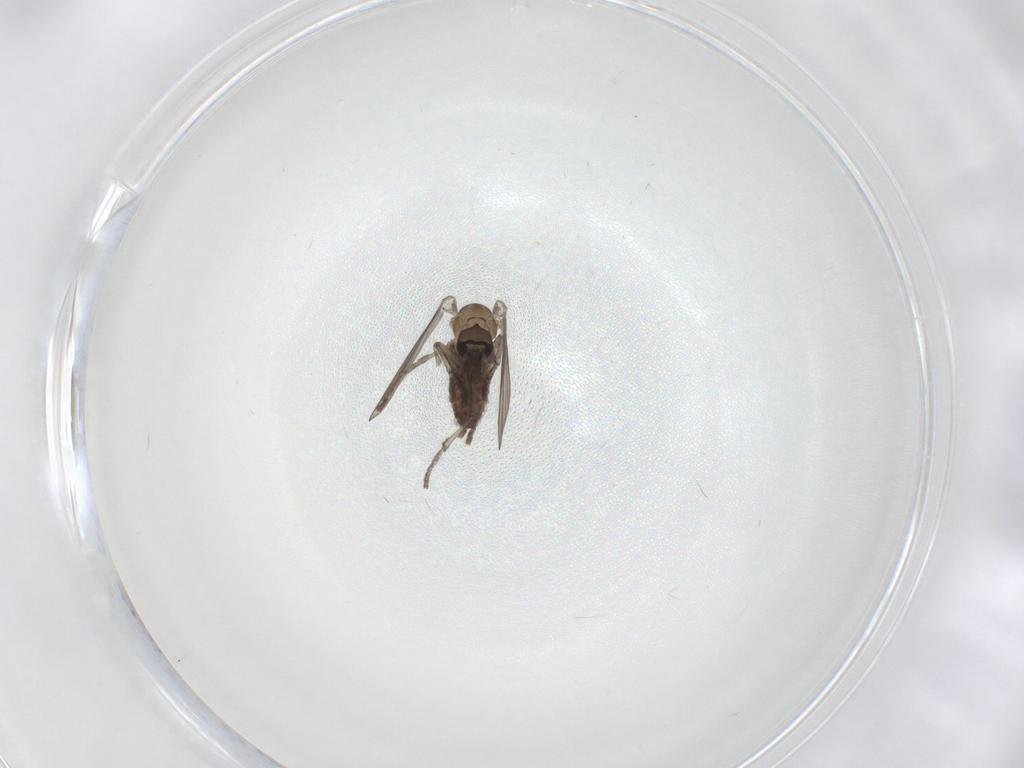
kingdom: Animalia
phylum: Arthropoda
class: Insecta
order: Diptera
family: Psychodidae
